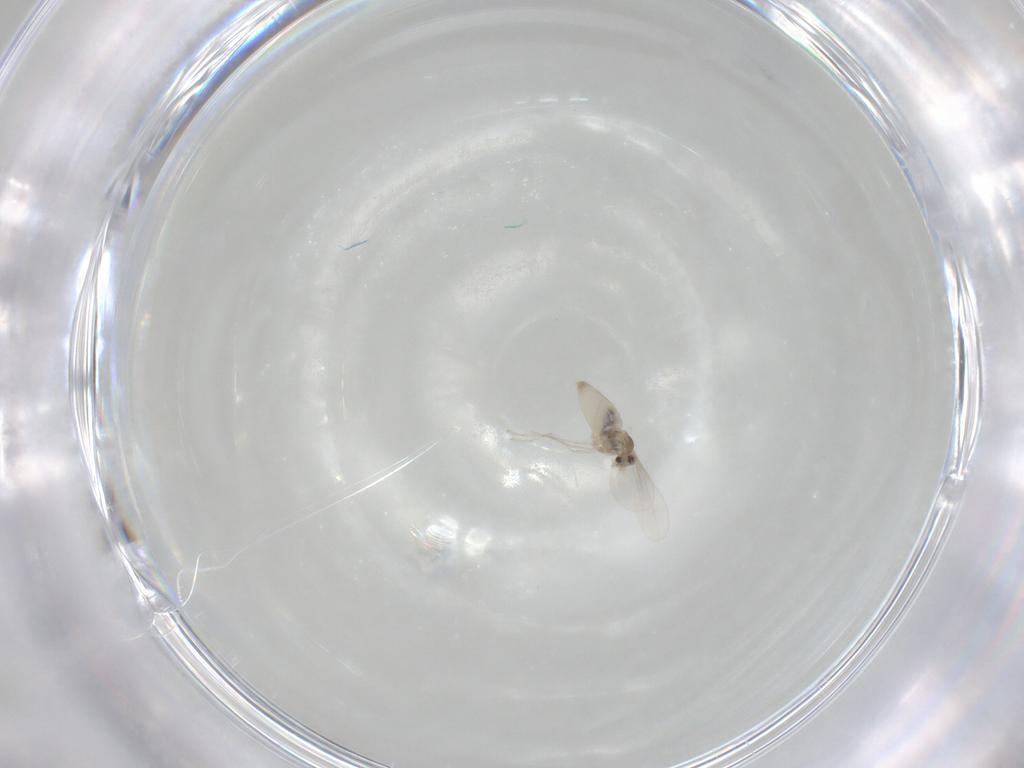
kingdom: Animalia
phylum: Arthropoda
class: Insecta
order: Diptera
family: Cecidomyiidae
